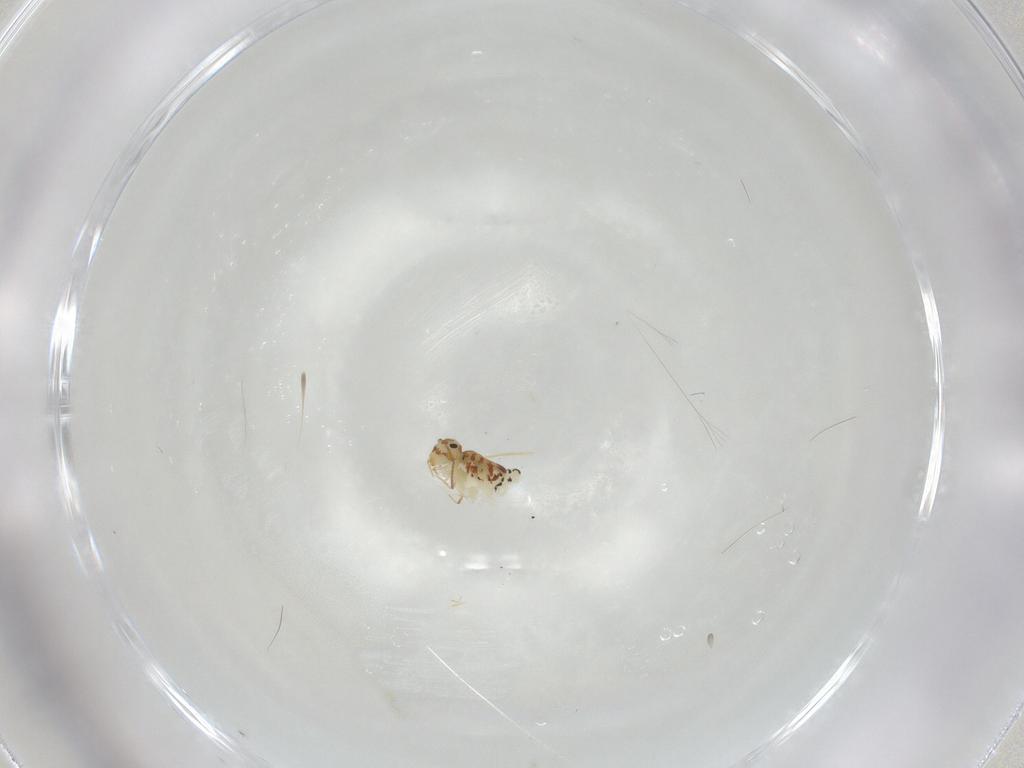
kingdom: Animalia
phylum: Arthropoda
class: Collembola
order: Symphypleona
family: Bourletiellidae
